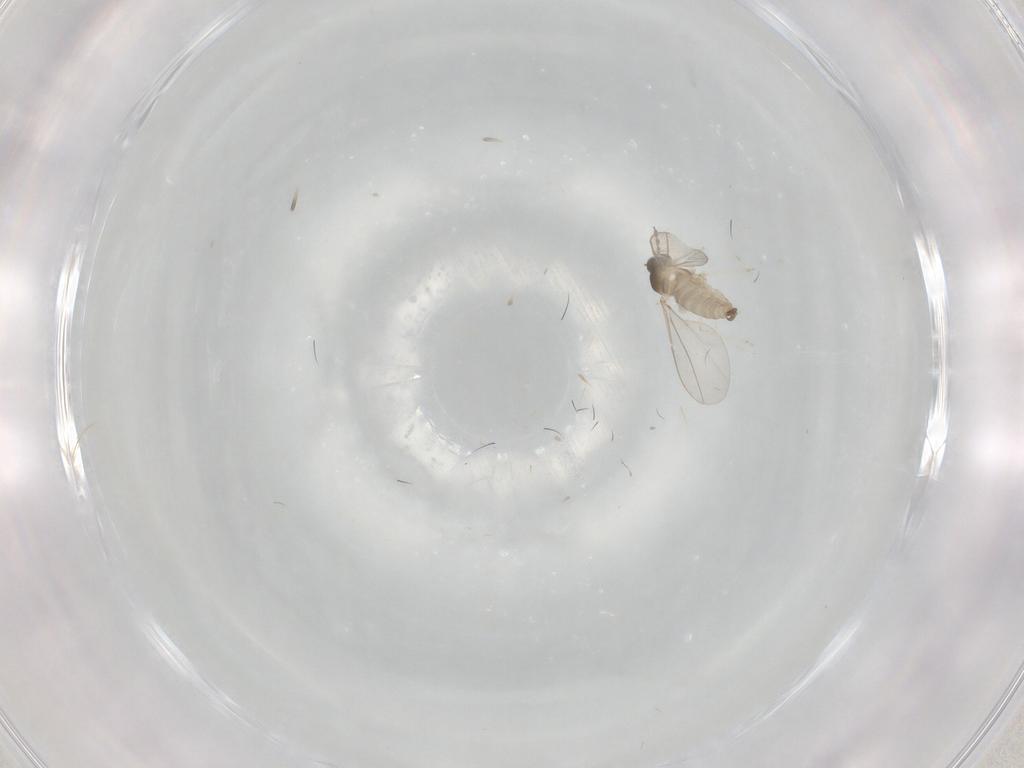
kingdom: Animalia
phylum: Arthropoda
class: Insecta
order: Diptera
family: Cecidomyiidae
